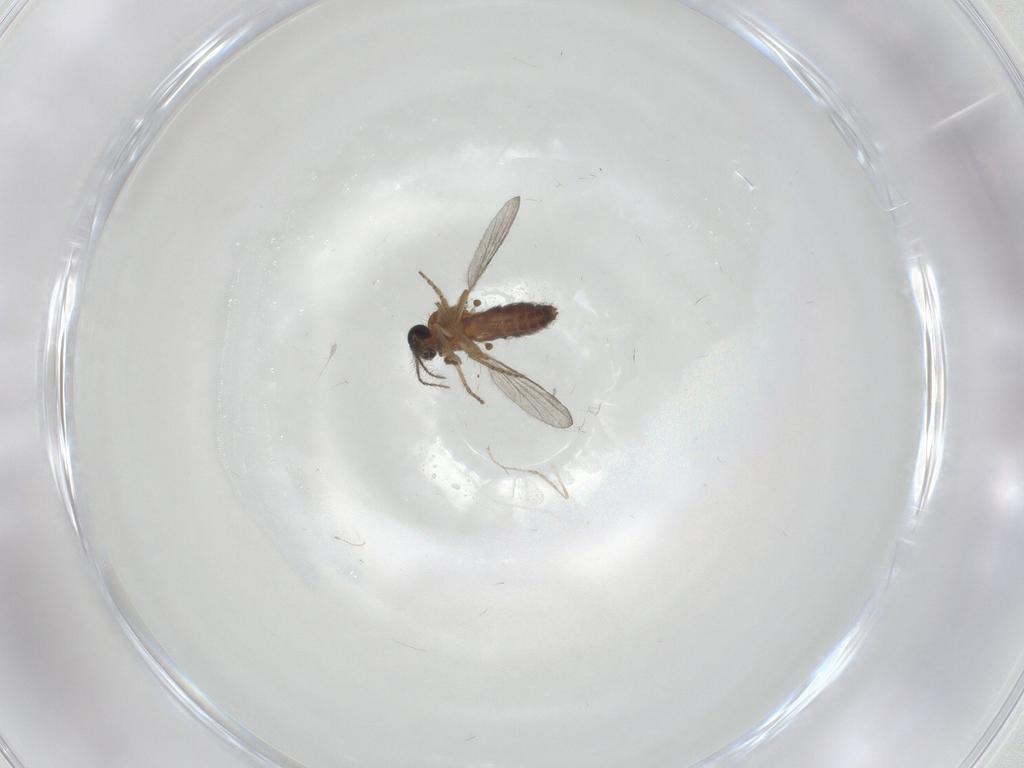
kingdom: Animalia
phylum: Arthropoda
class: Insecta
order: Diptera
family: Ceratopogonidae
